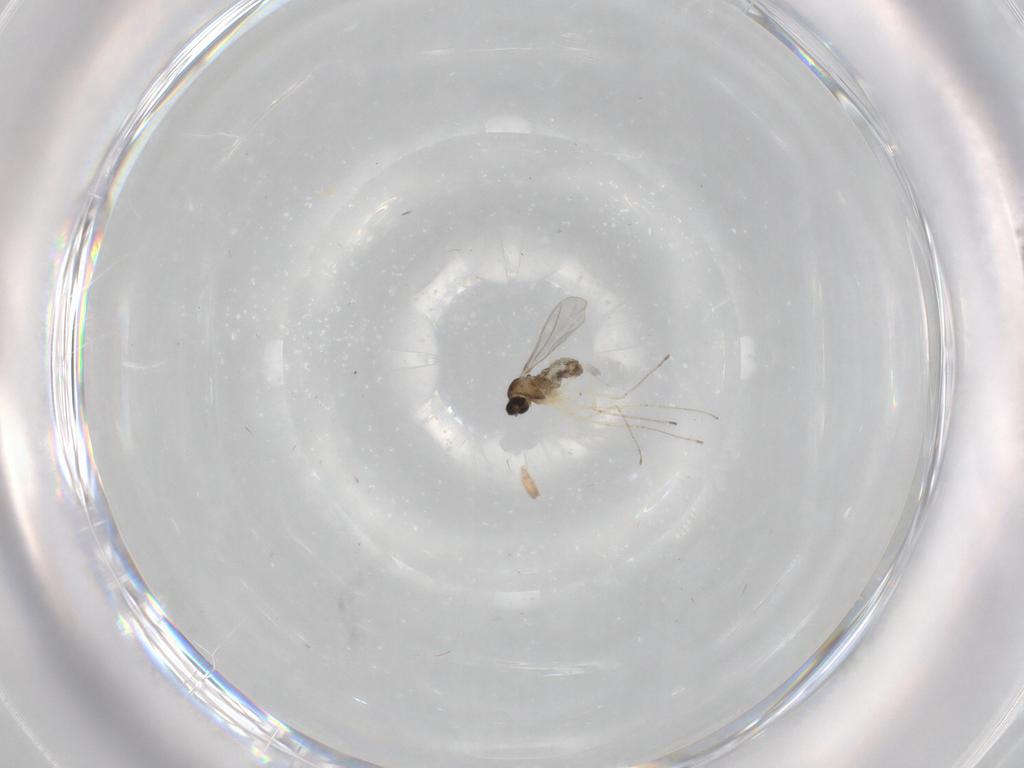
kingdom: Animalia
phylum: Arthropoda
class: Insecta
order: Diptera
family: Cecidomyiidae
